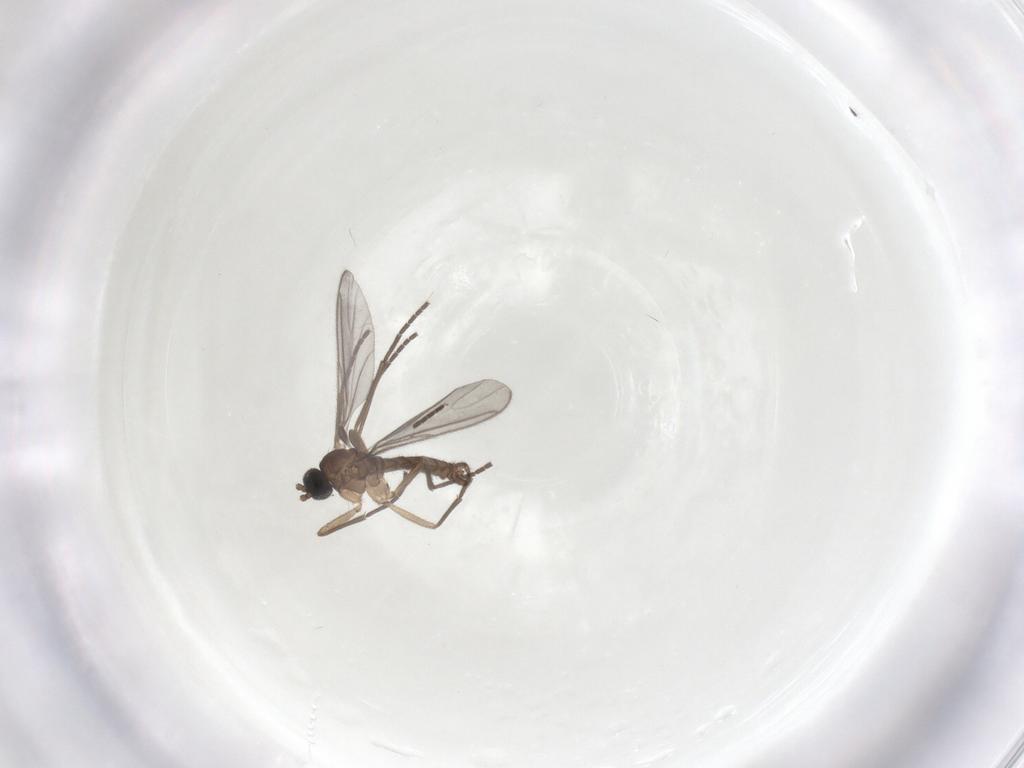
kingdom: Animalia
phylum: Arthropoda
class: Insecta
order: Diptera
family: Sciaridae
